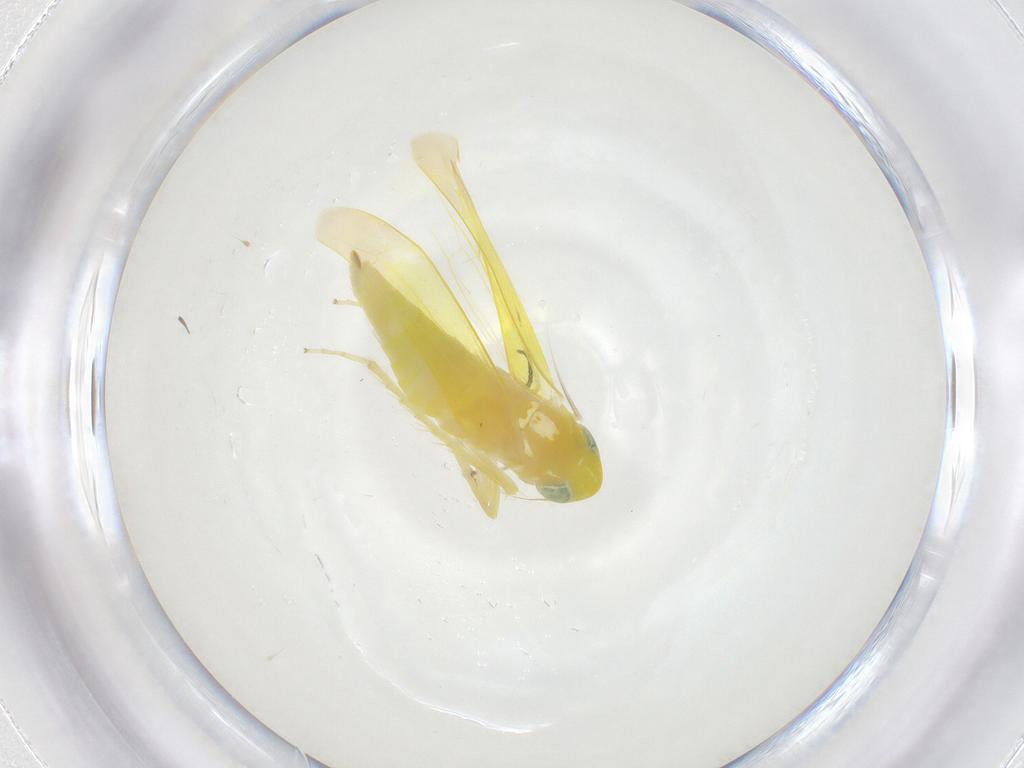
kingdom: Animalia
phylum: Arthropoda
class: Insecta
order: Hemiptera
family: Cicadellidae
